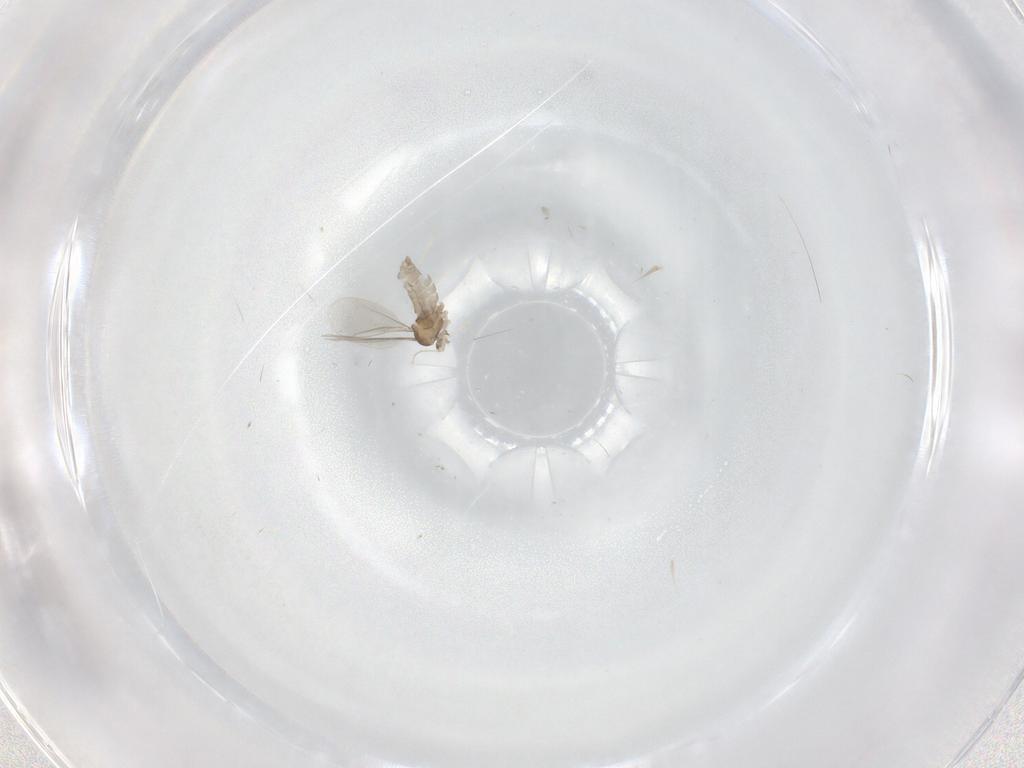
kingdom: Animalia
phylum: Arthropoda
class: Insecta
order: Diptera
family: Cecidomyiidae
